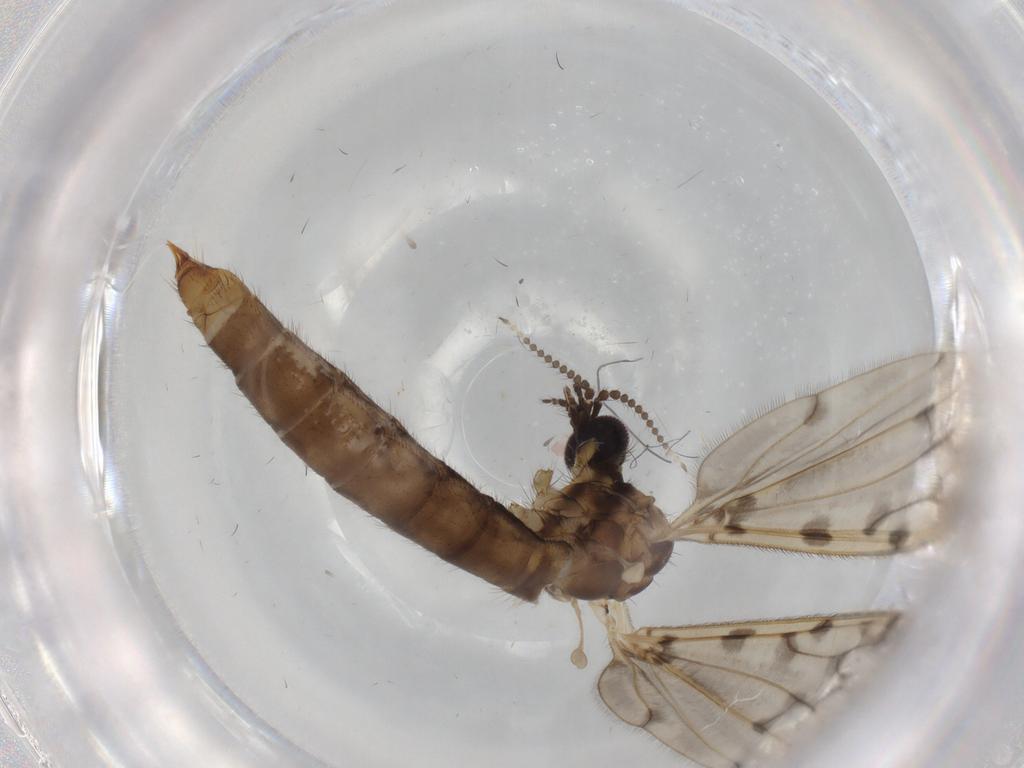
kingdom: Animalia
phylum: Arthropoda
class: Insecta
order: Diptera
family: Limoniidae
